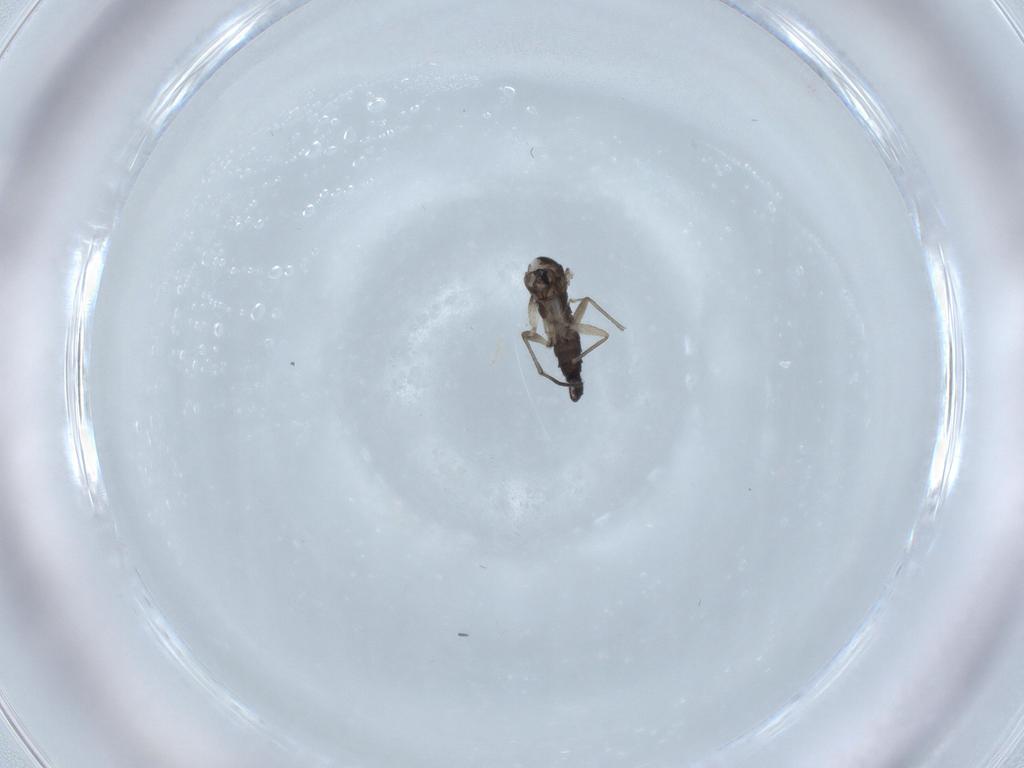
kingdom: Animalia
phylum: Arthropoda
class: Insecta
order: Diptera
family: Sciaridae
